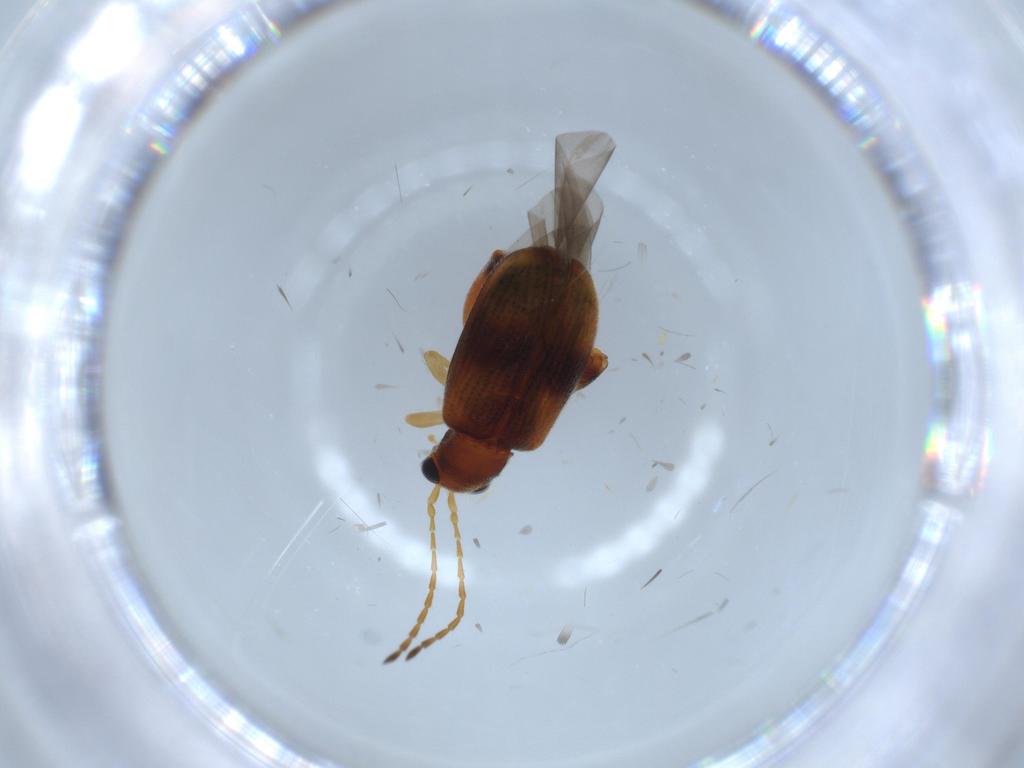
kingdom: Animalia
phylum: Arthropoda
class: Insecta
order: Coleoptera
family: Chrysomelidae
